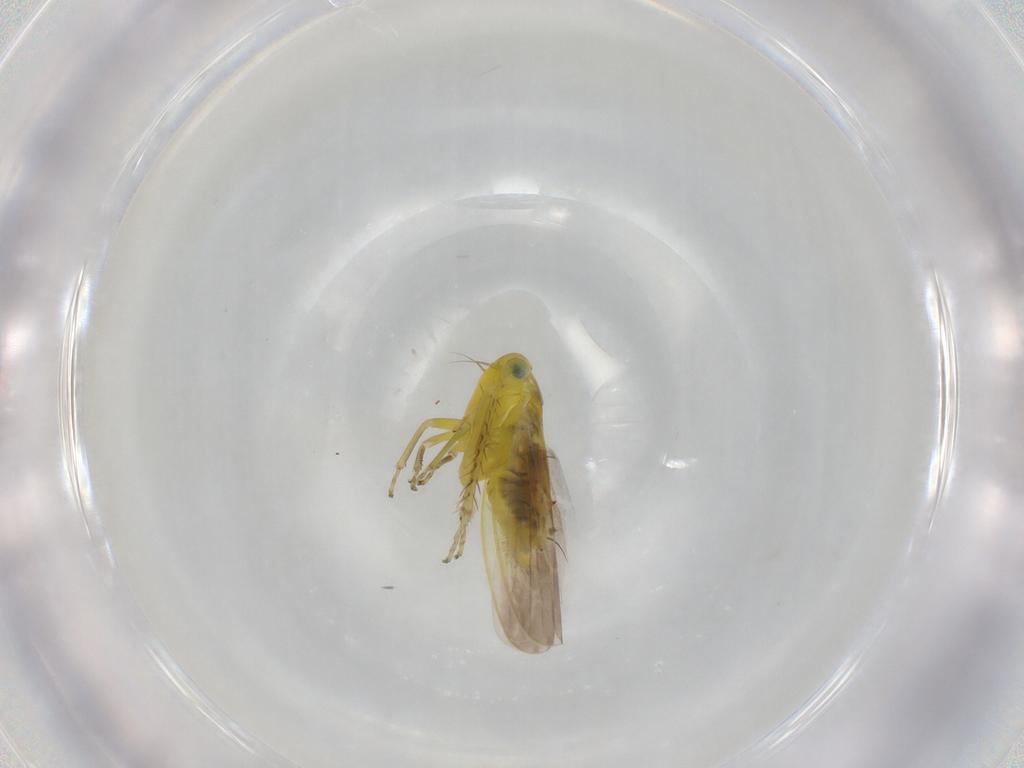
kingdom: Animalia
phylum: Arthropoda
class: Insecta
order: Hemiptera
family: Cicadellidae
